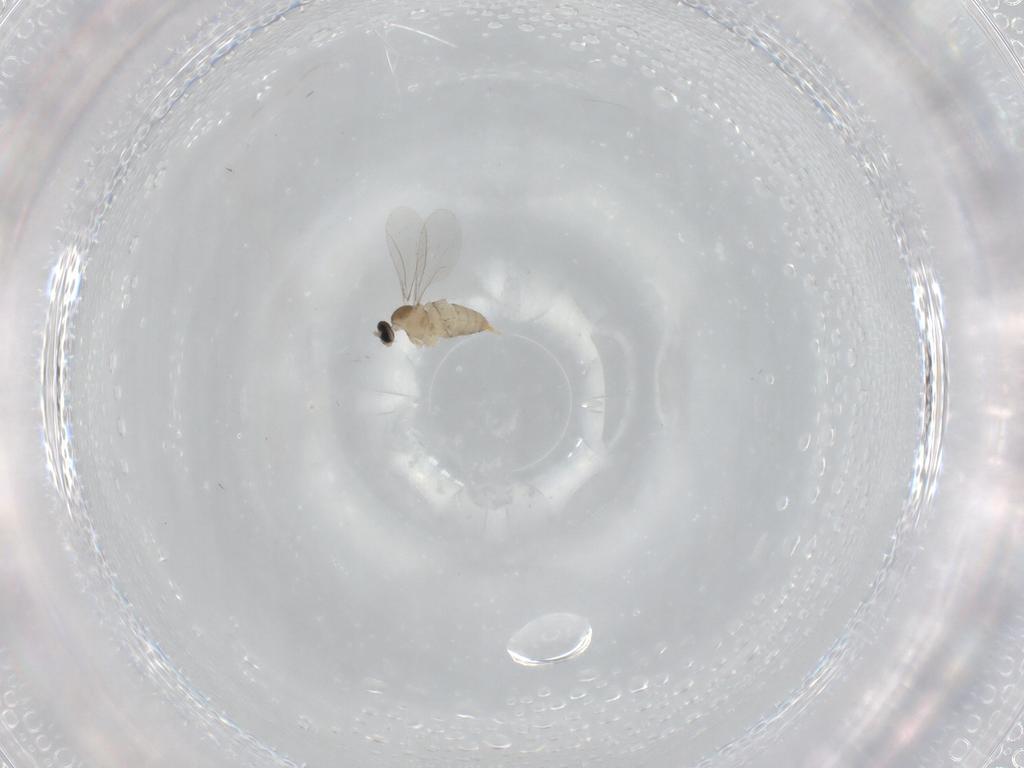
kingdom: Animalia
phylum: Arthropoda
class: Insecta
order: Diptera
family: Cecidomyiidae
